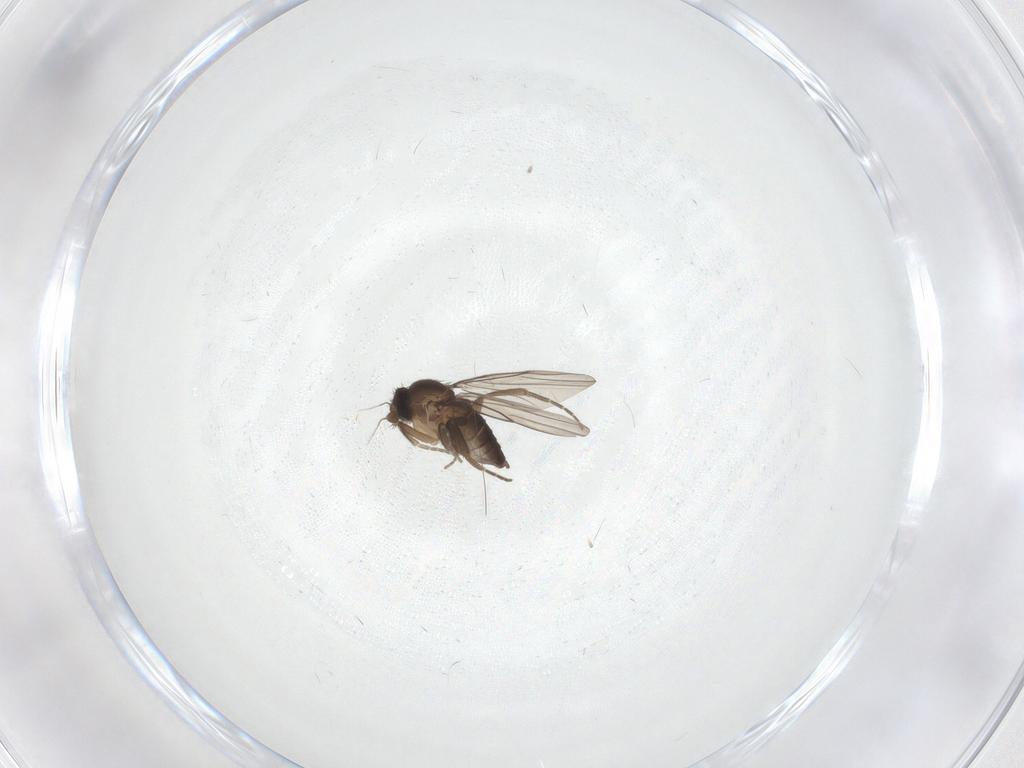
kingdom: Animalia
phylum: Arthropoda
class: Insecta
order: Diptera
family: Phoridae
